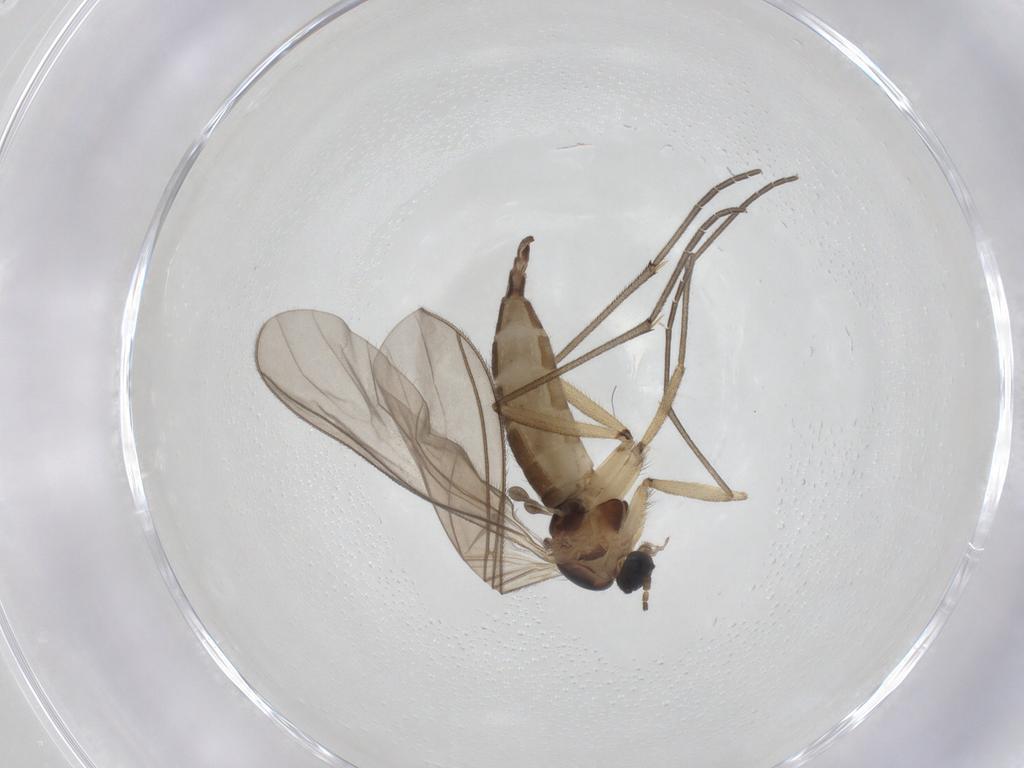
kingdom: Animalia
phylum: Arthropoda
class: Insecta
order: Diptera
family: Sciaridae
